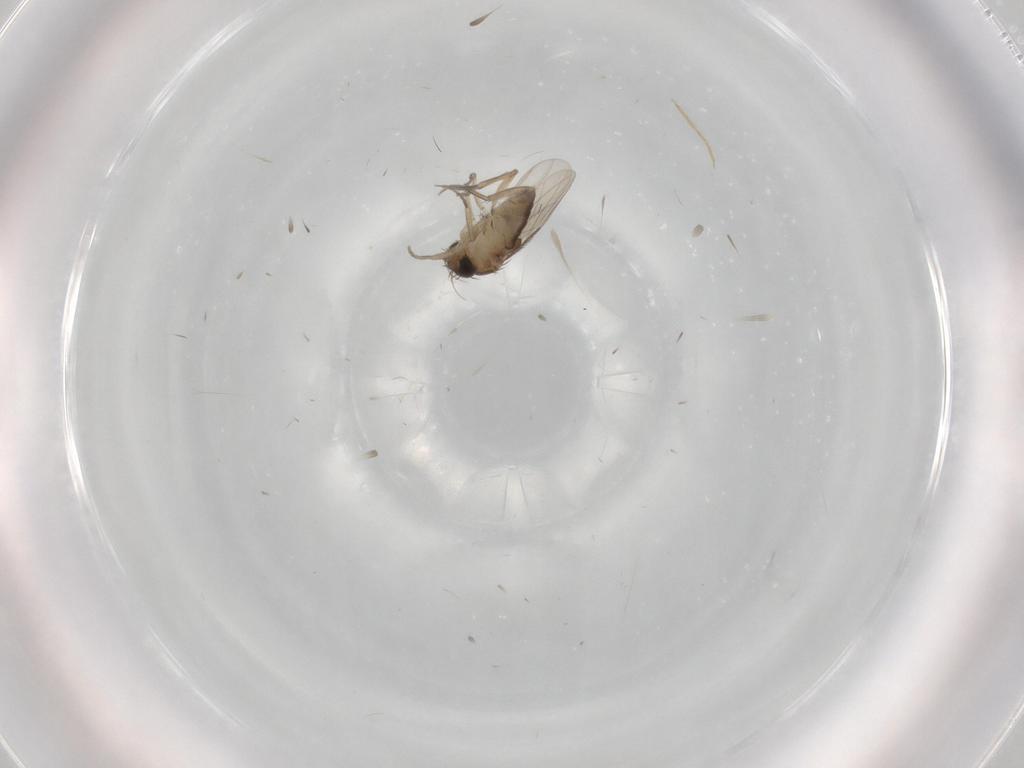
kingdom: Animalia
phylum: Arthropoda
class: Insecta
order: Diptera
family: Phoridae
